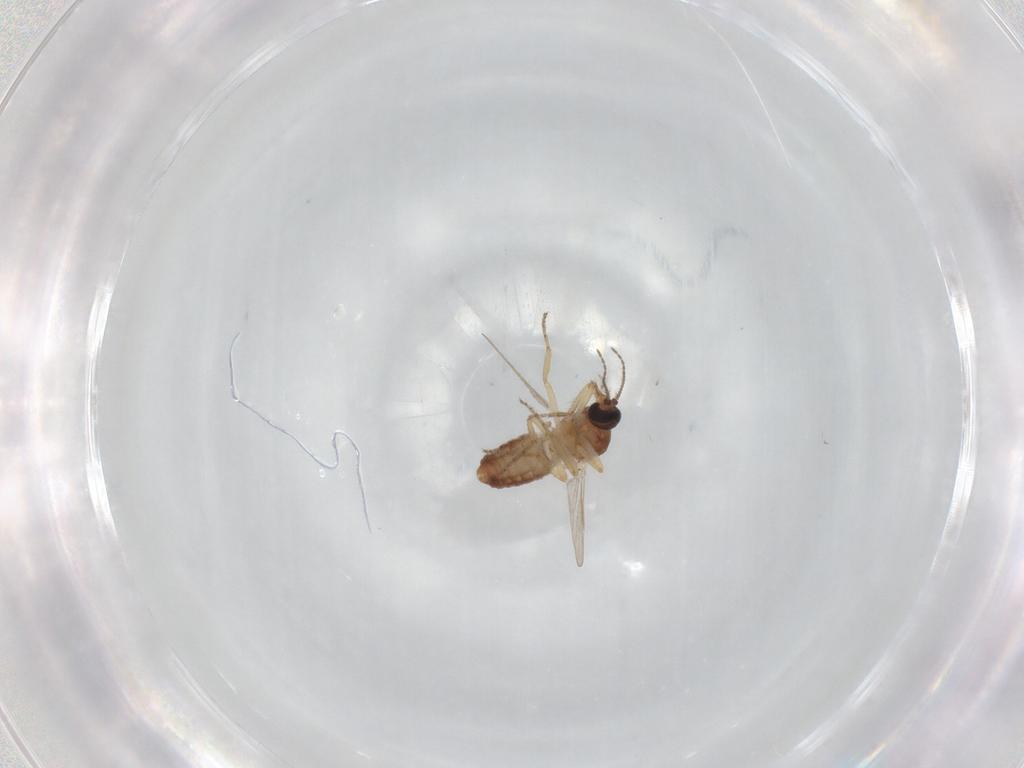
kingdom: Animalia
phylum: Arthropoda
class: Insecta
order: Diptera
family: Ceratopogonidae
